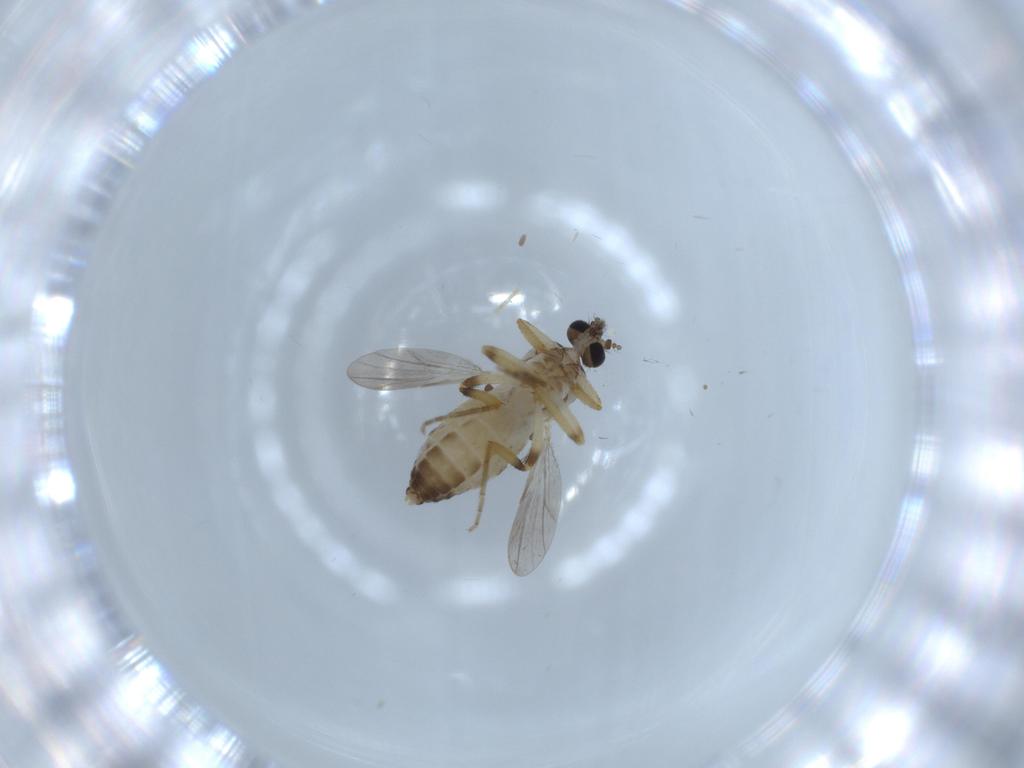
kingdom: Animalia
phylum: Arthropoda
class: Insecta
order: Diptera
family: Ceratopogonidae
